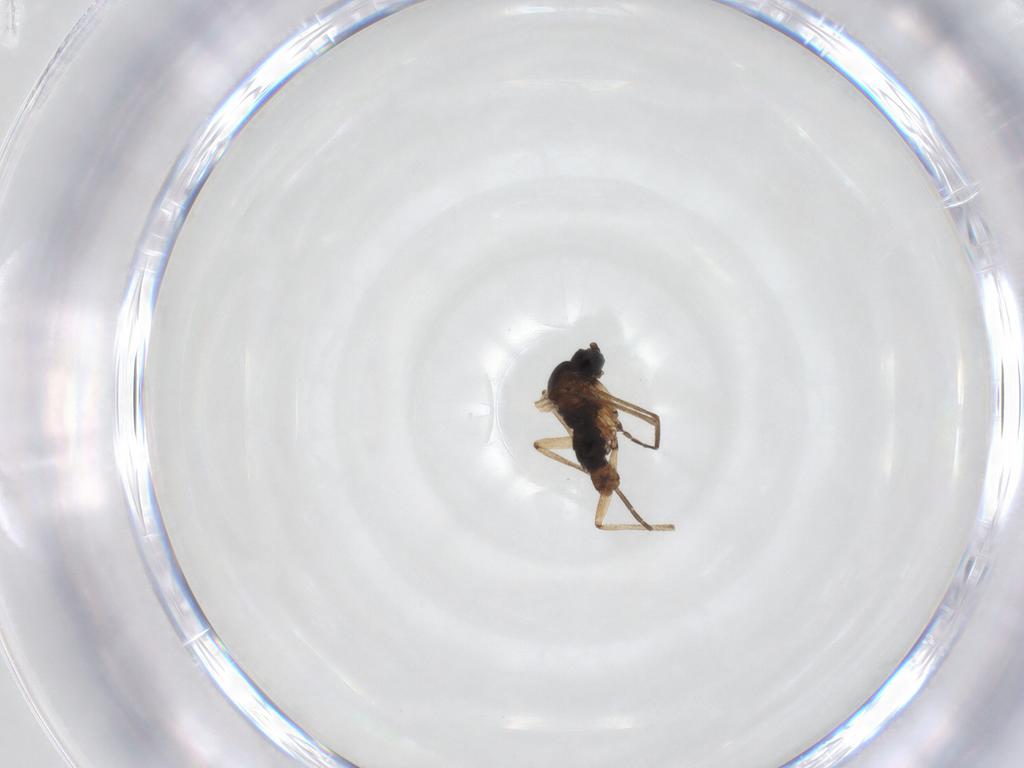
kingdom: Animalia
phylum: Arthropoda
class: Insecta
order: Diptera
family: Sciaridae
